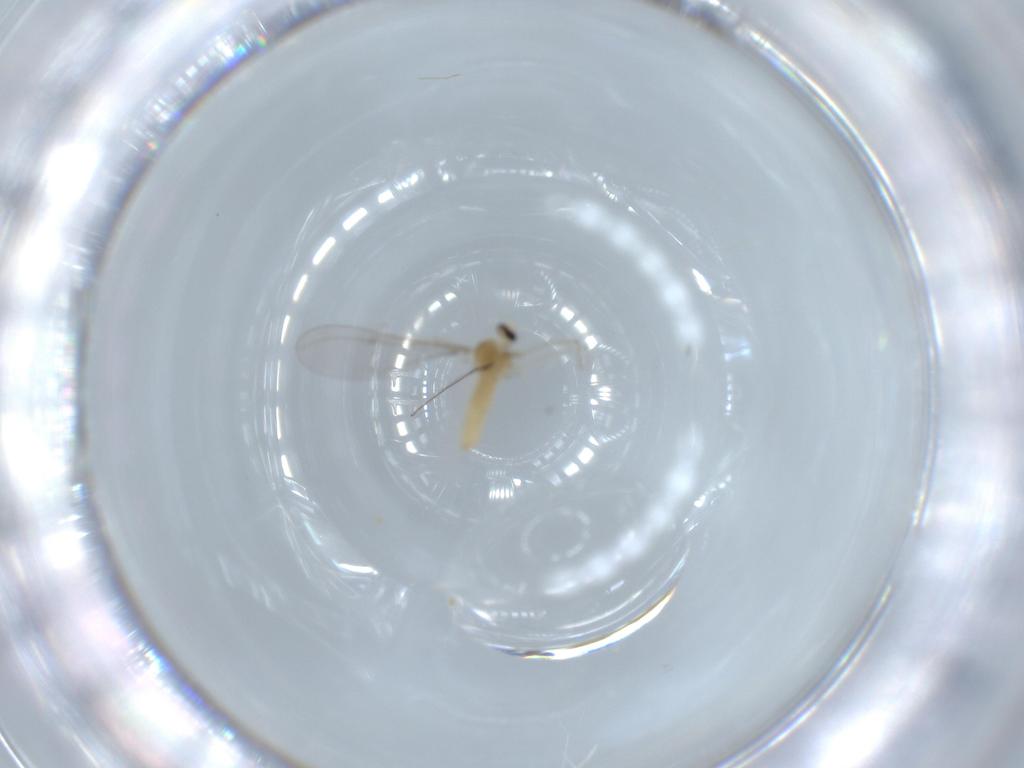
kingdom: Animalia
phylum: Arthropoda
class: Insecta
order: Diptera
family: Cecidomyiidae
